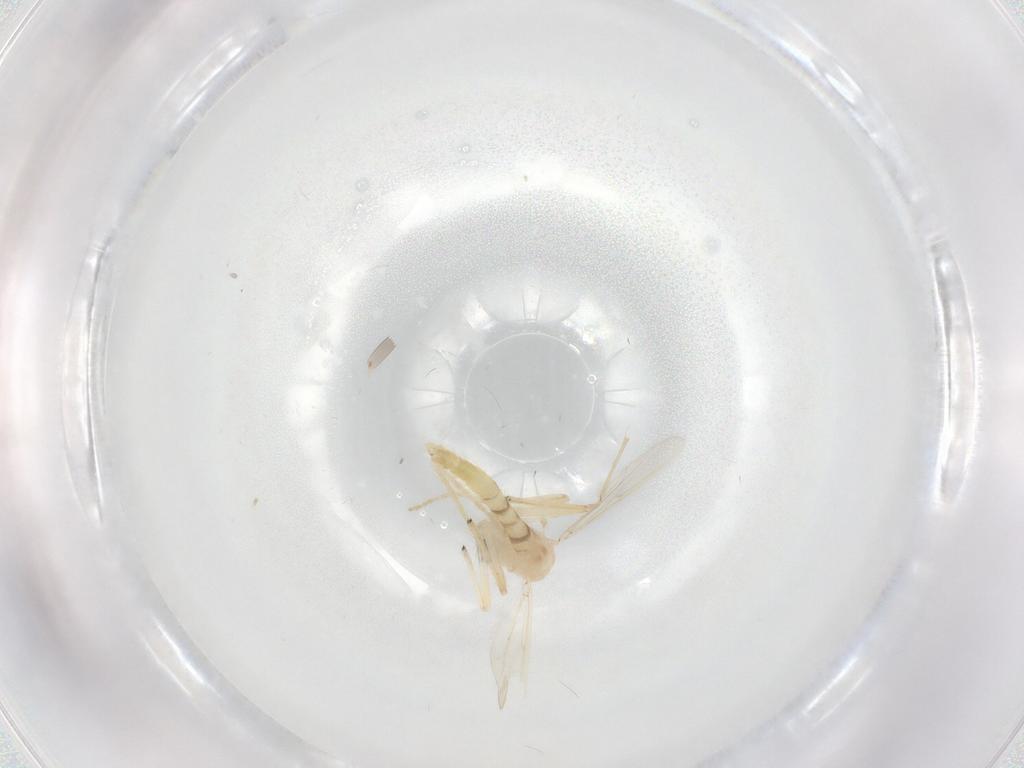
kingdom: Animalia
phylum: Arthropoda
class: Insecta
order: Diptera
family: Chironomidae
